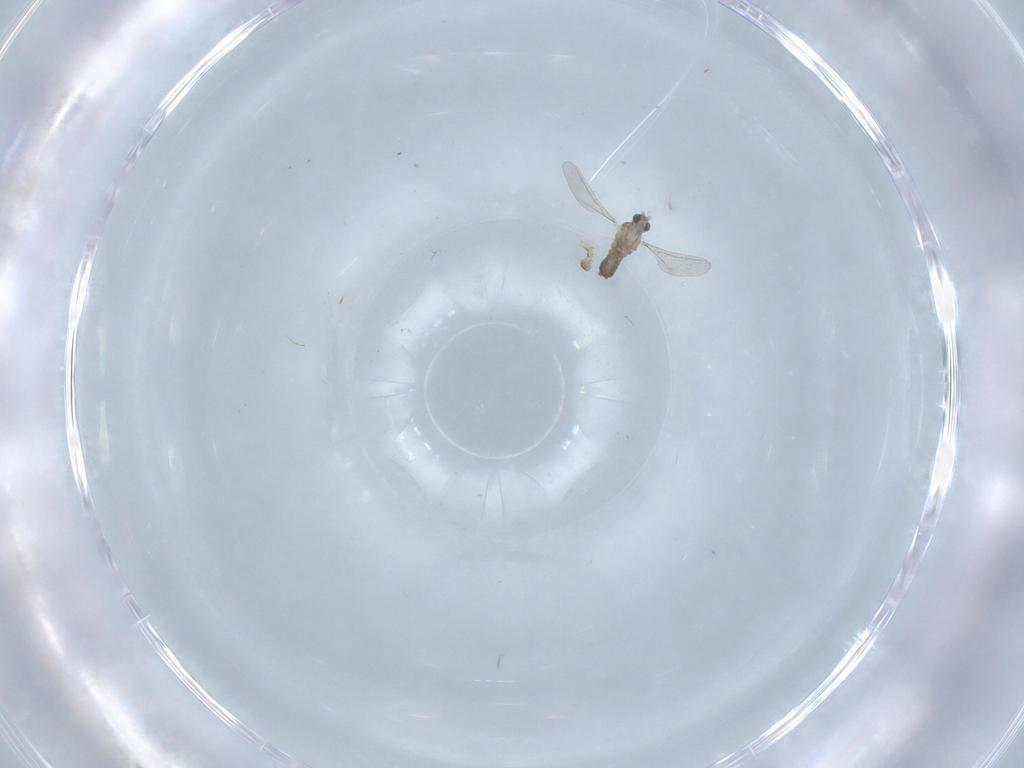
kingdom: Animalia
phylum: Arthropoda
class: Insecta
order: Diptera
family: Cecidomyiidae
